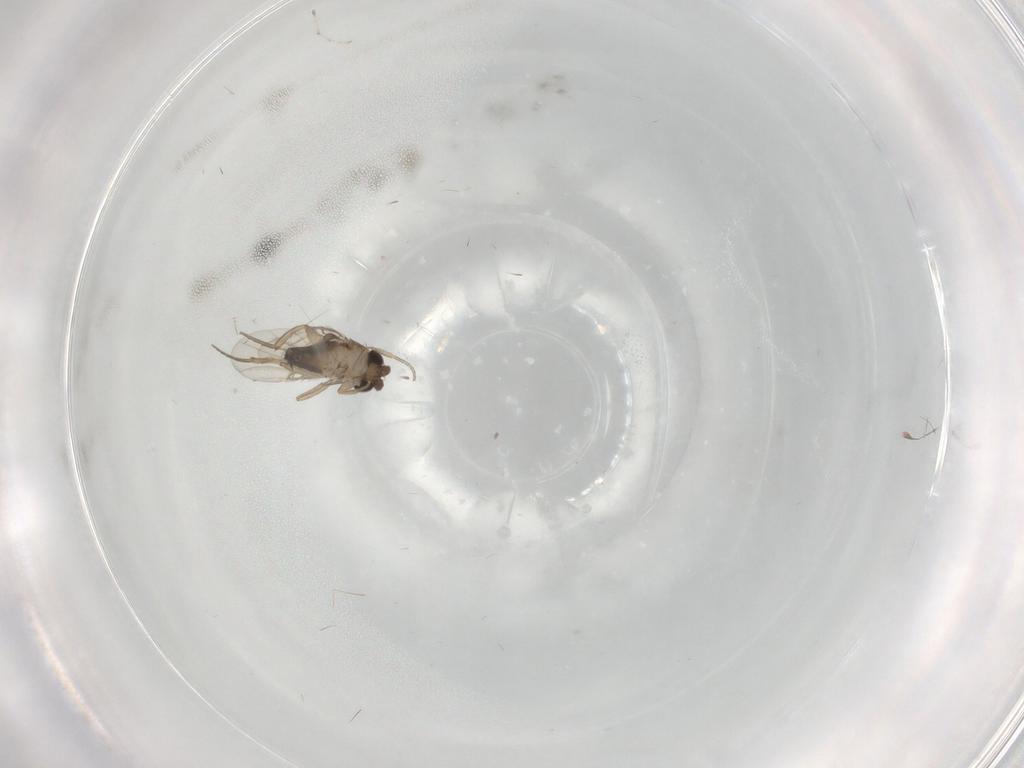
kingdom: Animalia
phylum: Arthropoda
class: Insecta
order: Diptera
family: Phoridae
